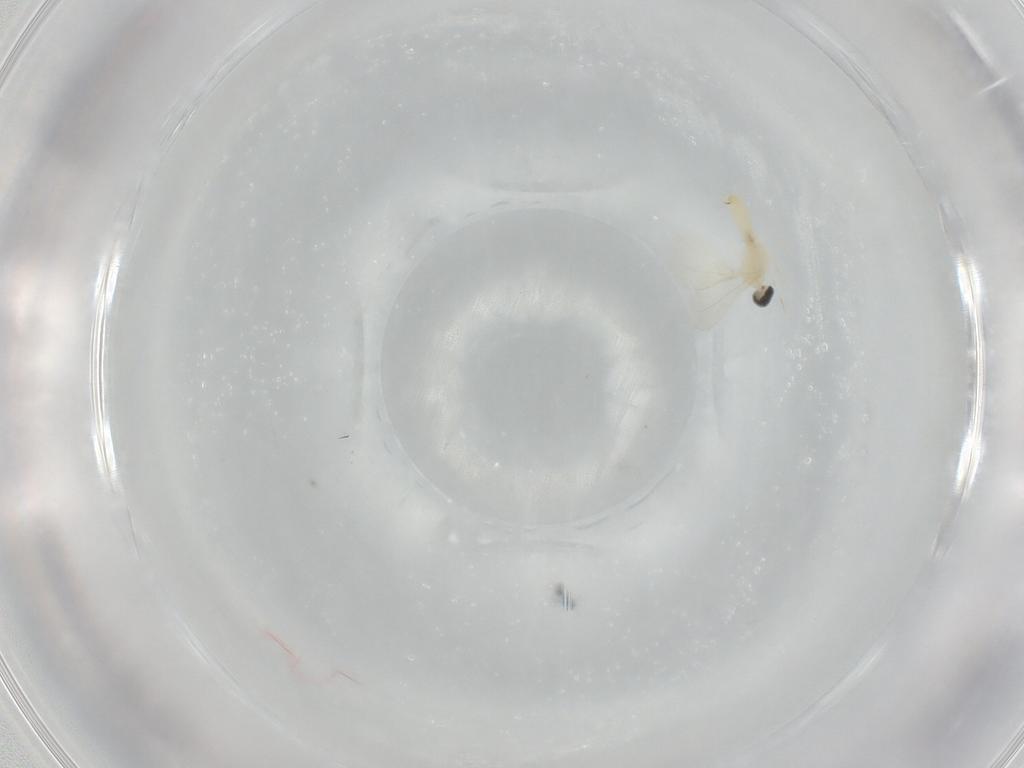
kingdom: Animalia
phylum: Arthropoda
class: Insecta
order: Diptera
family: Cecidomyiidae
